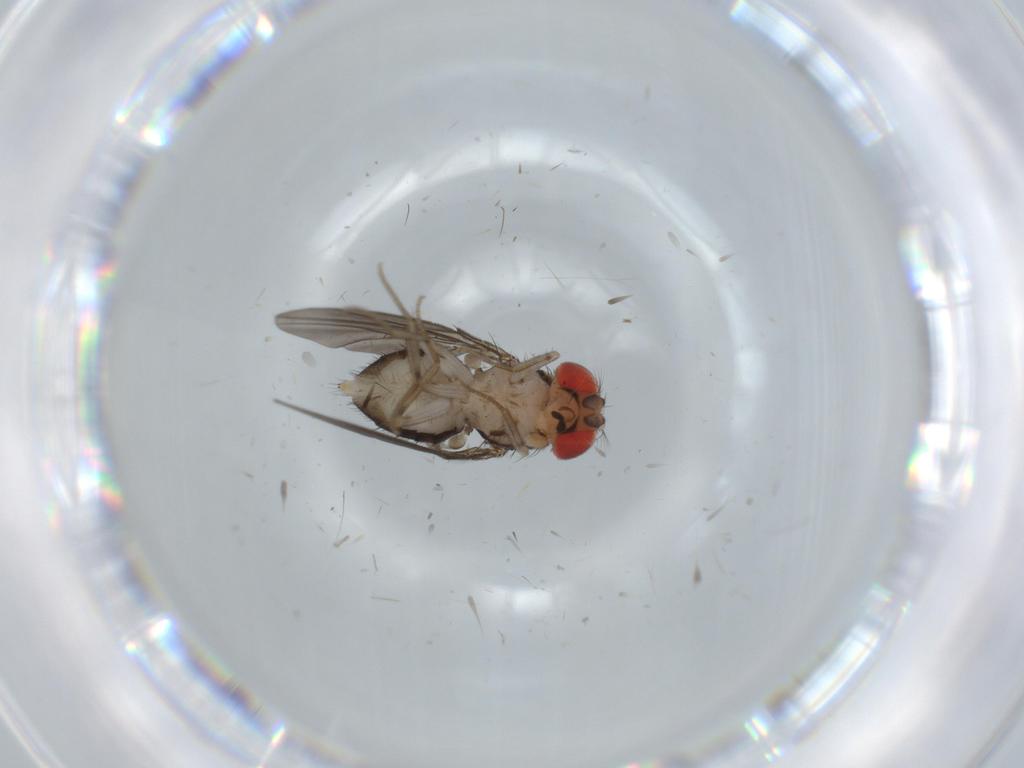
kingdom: Animalia
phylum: Arthropoda
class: Insecta
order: Diptera
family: Drosophilidae
